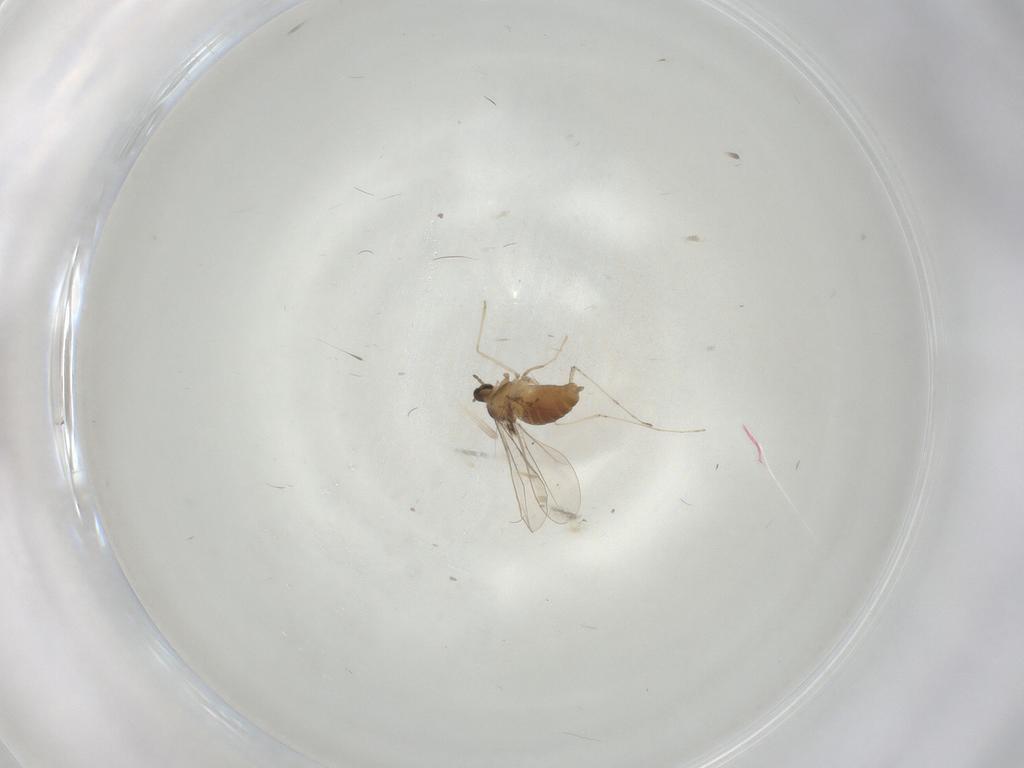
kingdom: Animalia
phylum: Arthropoda
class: Insecta
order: Diptera
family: Cecidomyiidae
